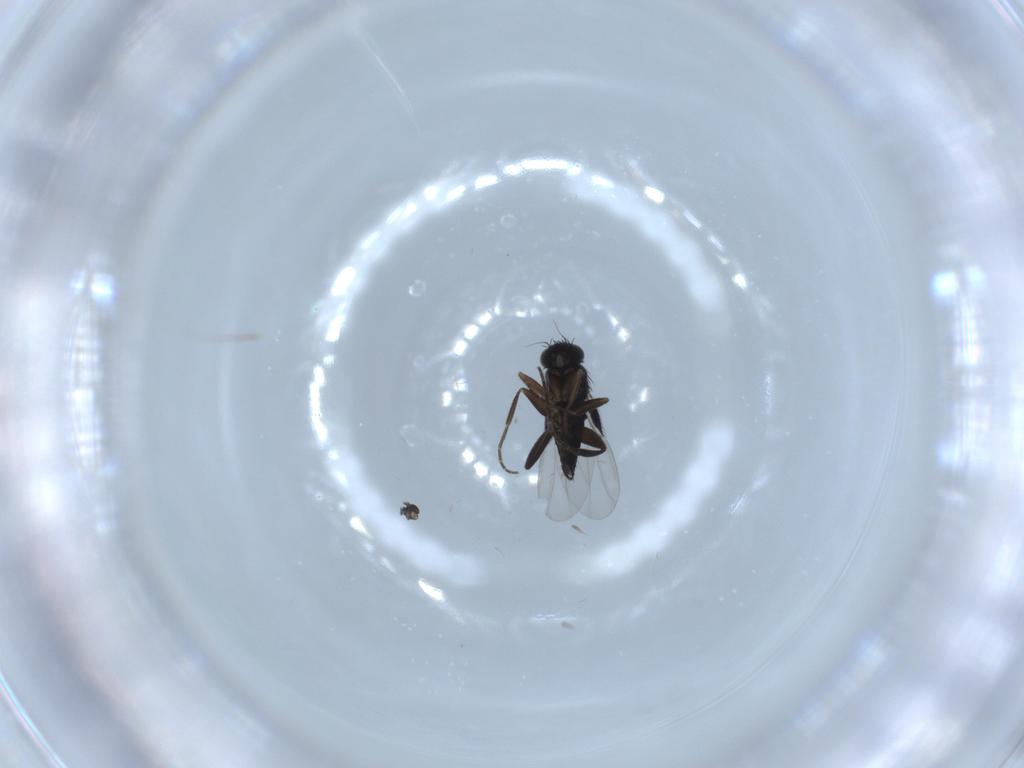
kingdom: Animalia
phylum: Arthropoda
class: Insecta
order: Diptera
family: Phoridae
